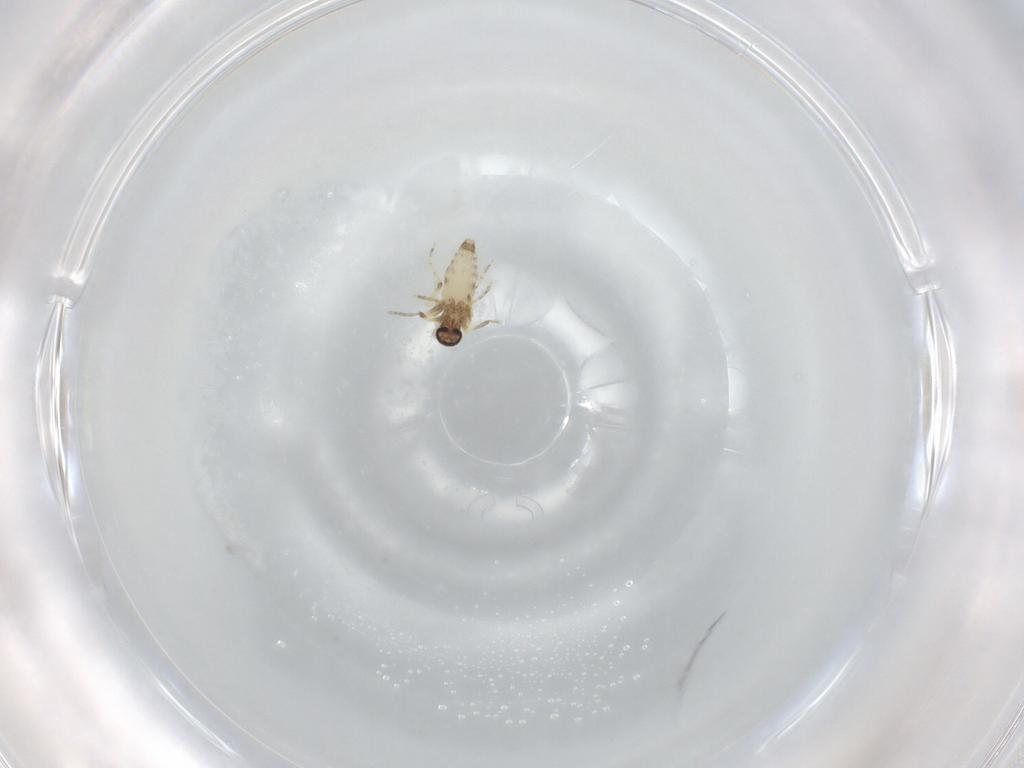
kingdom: Animalia
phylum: Arthropoda
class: Insecta
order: Diptera
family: Ceratopogonidae
